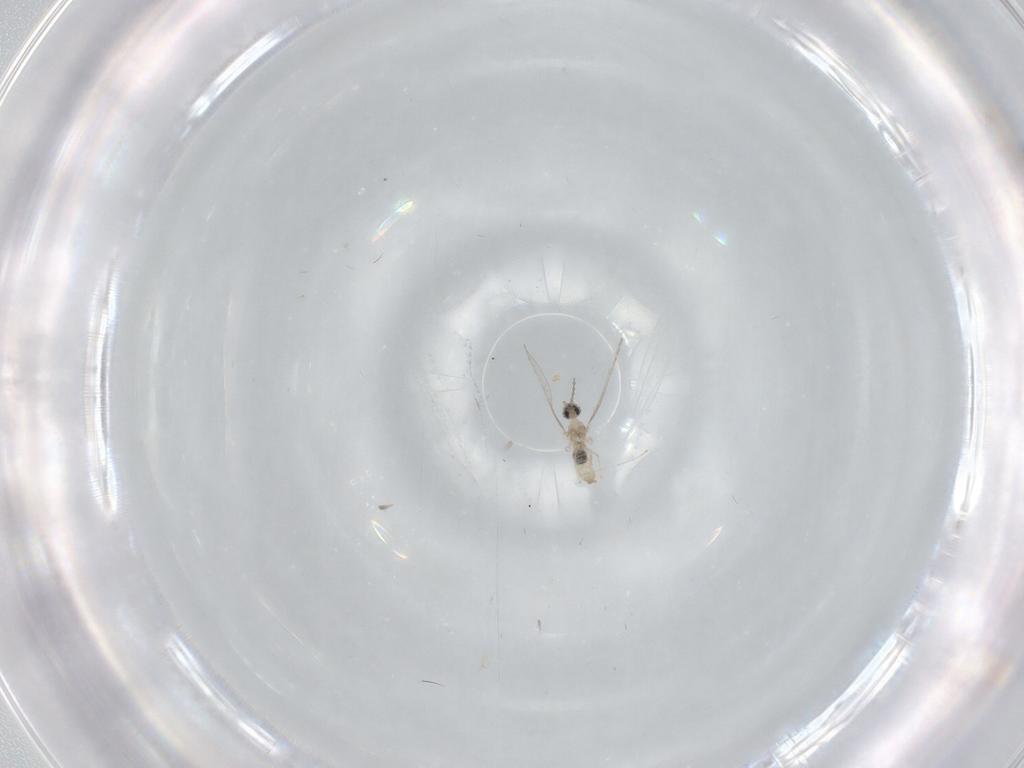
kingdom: Animalia
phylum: Arthropoda
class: Insecta
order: Diptera
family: Cecidomyiidae
